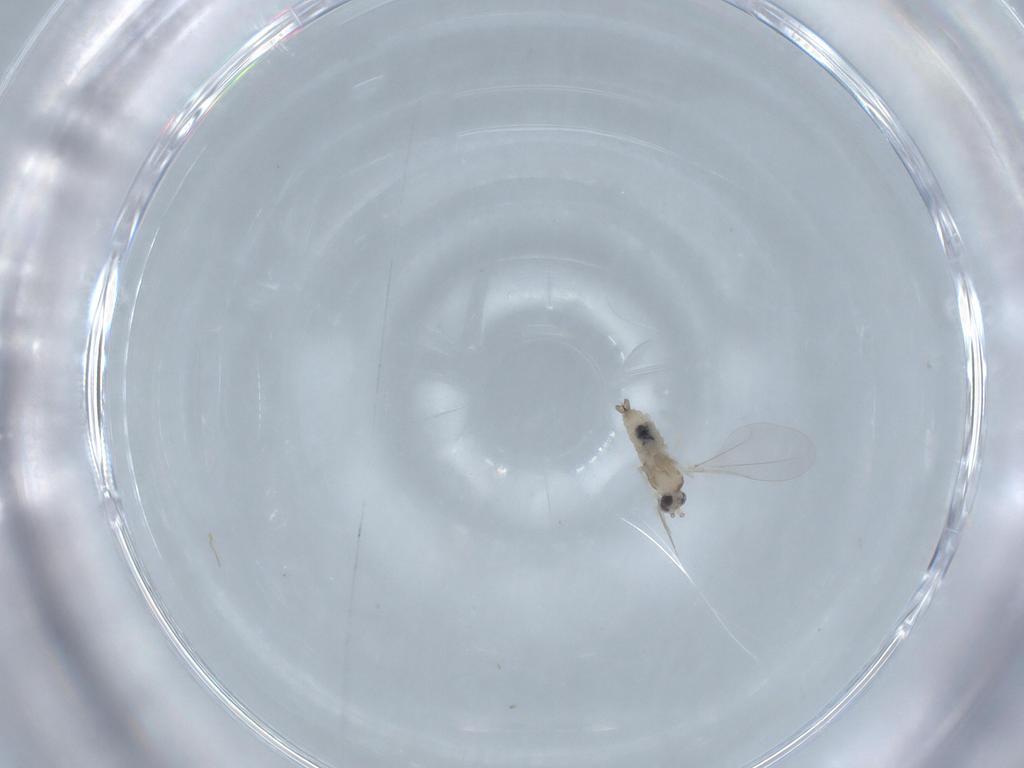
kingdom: Animalia
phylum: Arthropoda
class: Insecta
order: Diptera
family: Cecidomyiidae
